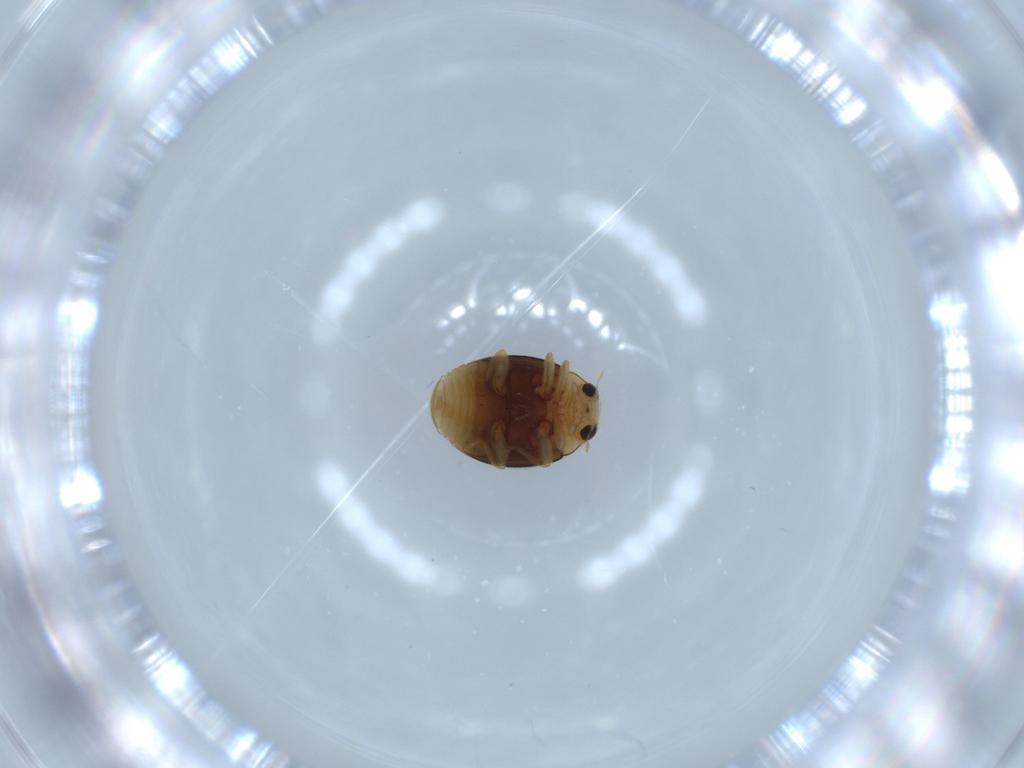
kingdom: Animalia
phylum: Arthropoda
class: Insecta
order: Coleoptera
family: Coccinellidae
